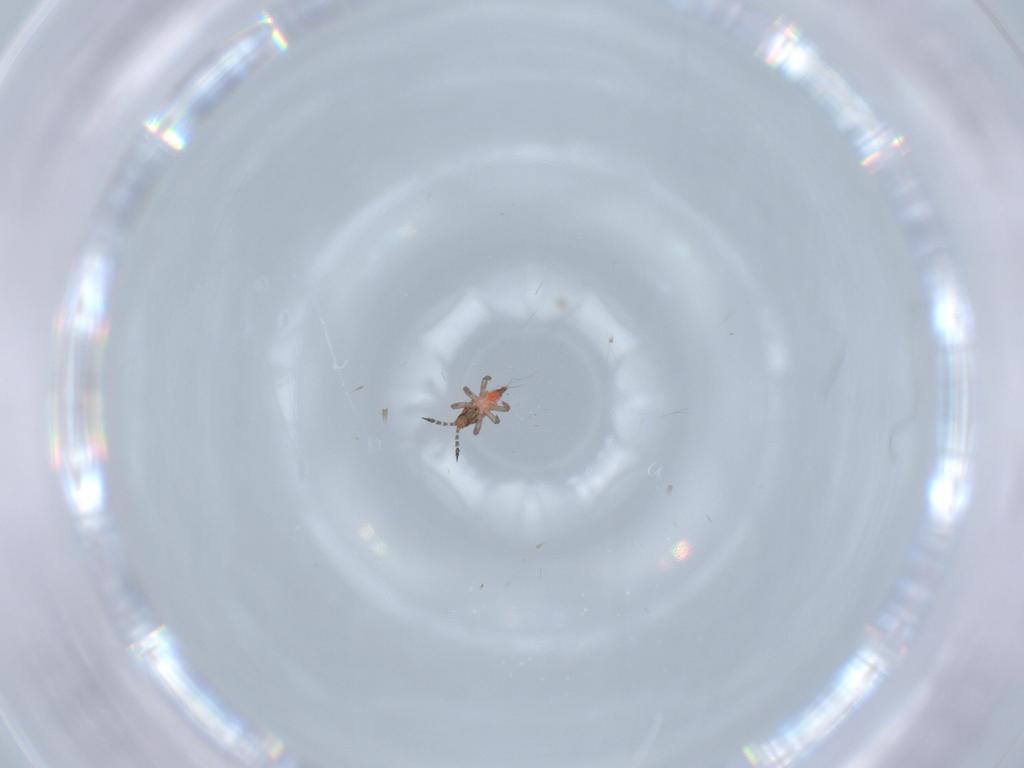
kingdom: Animalia
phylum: Arthropoda
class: Insecta
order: Thysanoptera
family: Phlaeothripidae
